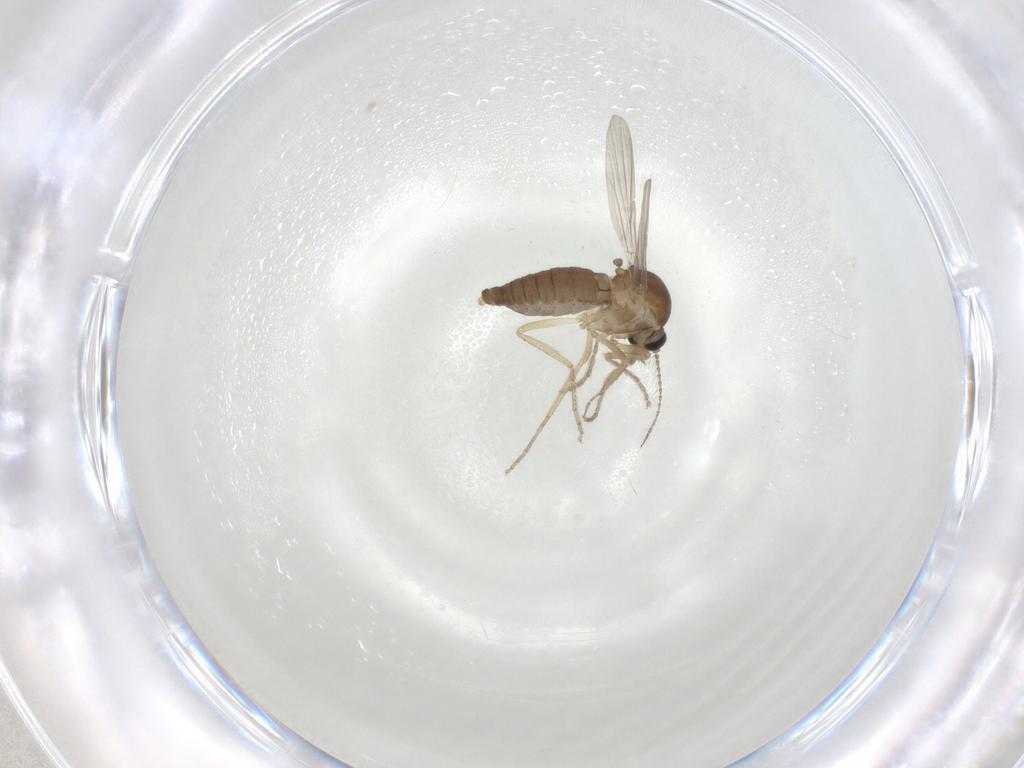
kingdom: Animalia
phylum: Arthropoda
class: Insecta
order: Diptera
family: Ceratopogonidae
